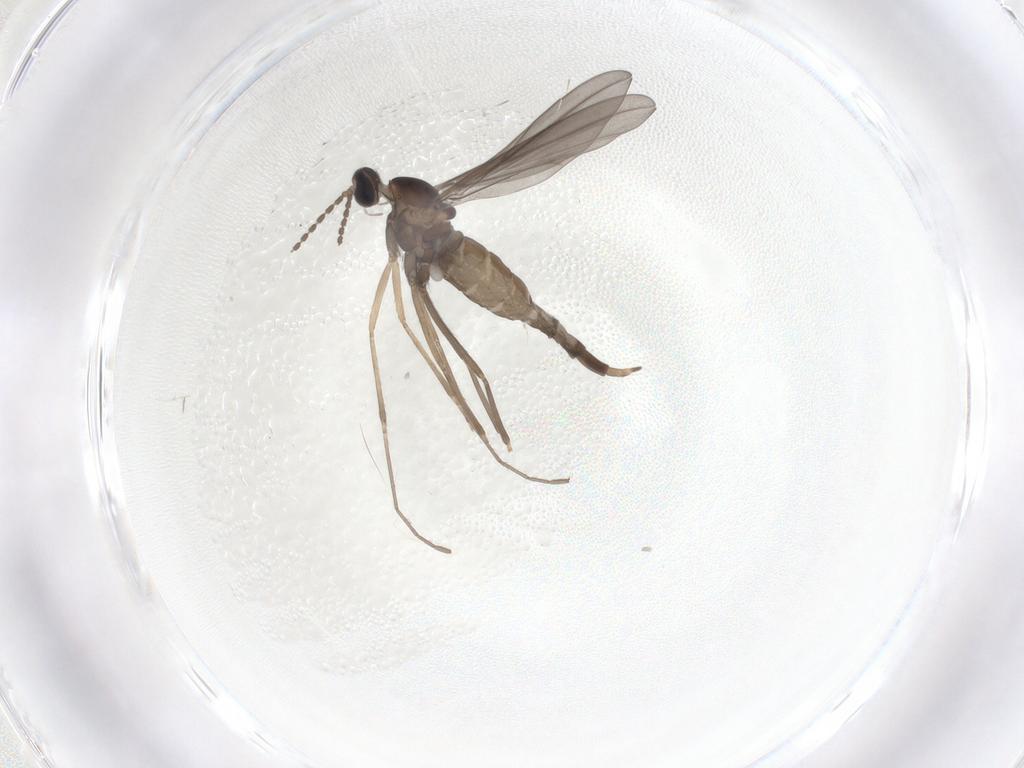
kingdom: Animalia
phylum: Arthropoda
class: Insecta
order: Diptera
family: Cecidomyiidae
